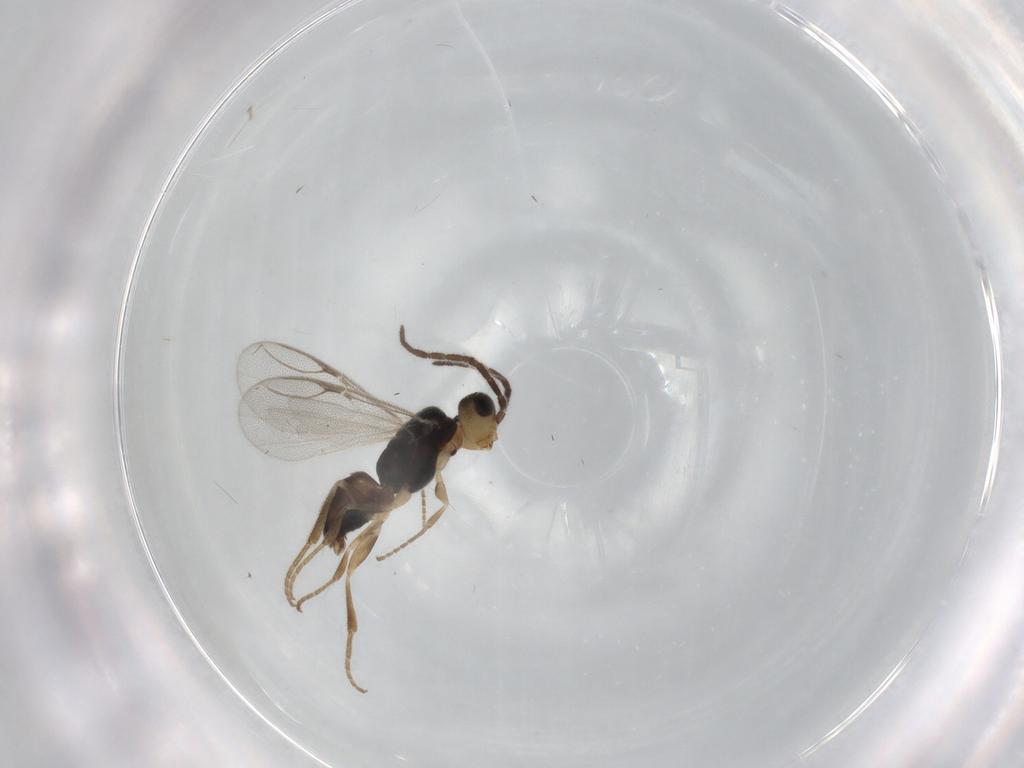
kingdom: Animalia
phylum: Arthropoda
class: Insecta
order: Hymenoptera
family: Dryinidae
